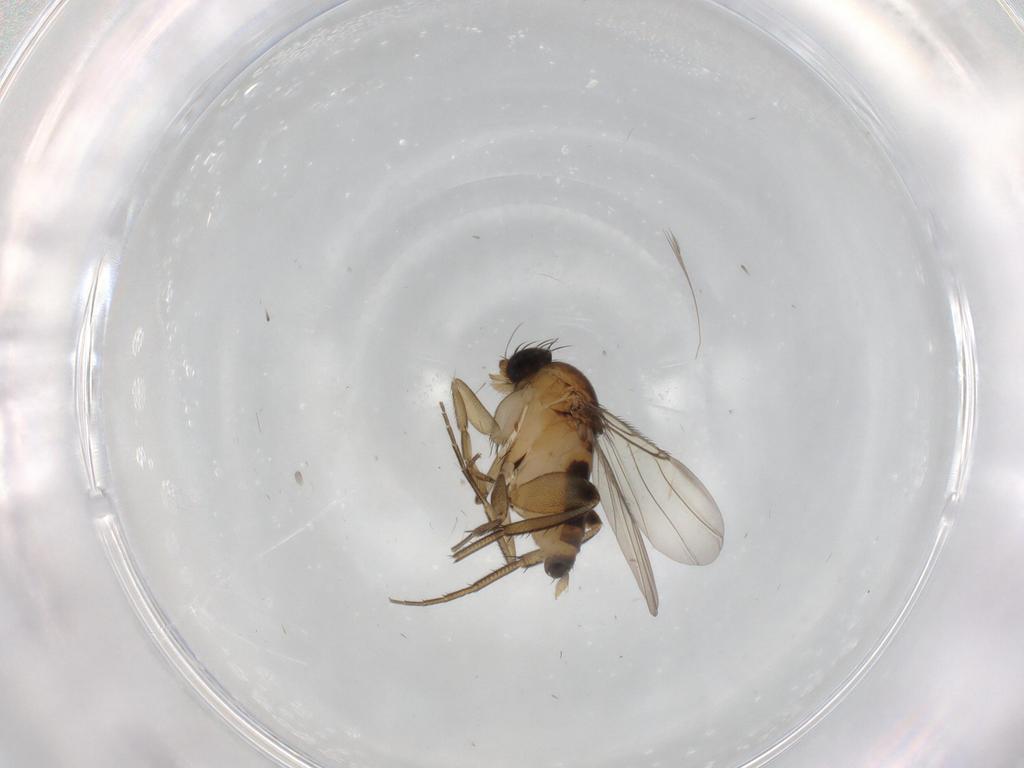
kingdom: Animalia
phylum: Arthropoda
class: Insecta
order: Diptera
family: Phoridae
